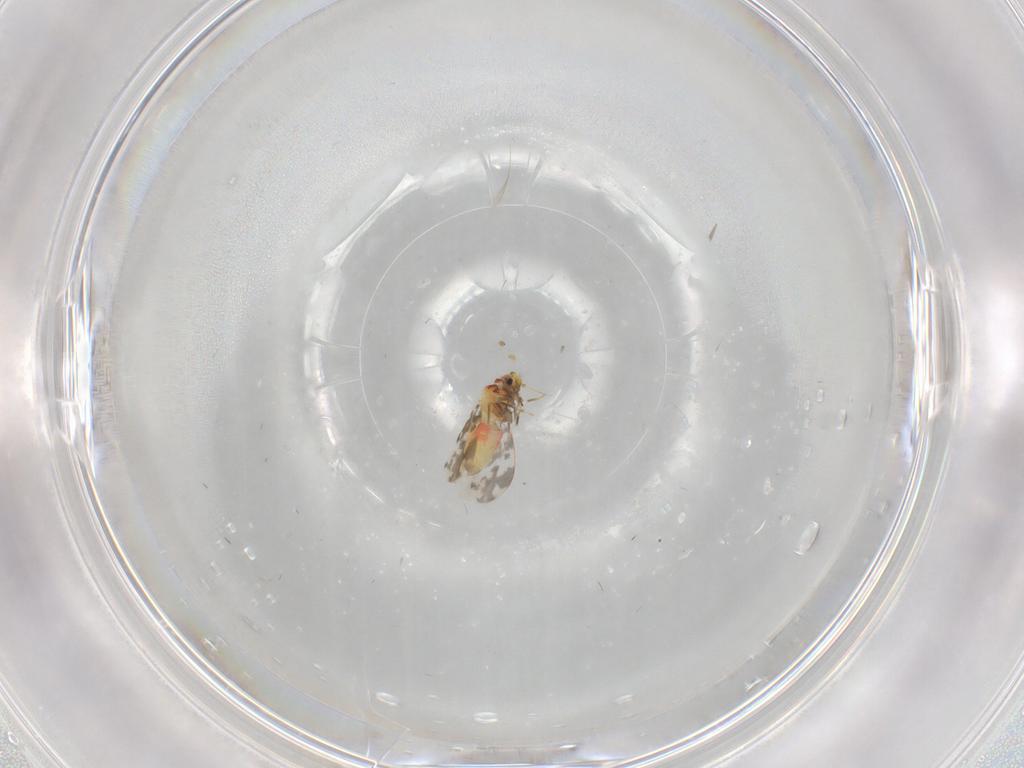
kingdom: Animalia
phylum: Arthropoda
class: Insecta
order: Hemiptera
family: Aleyrodidae
